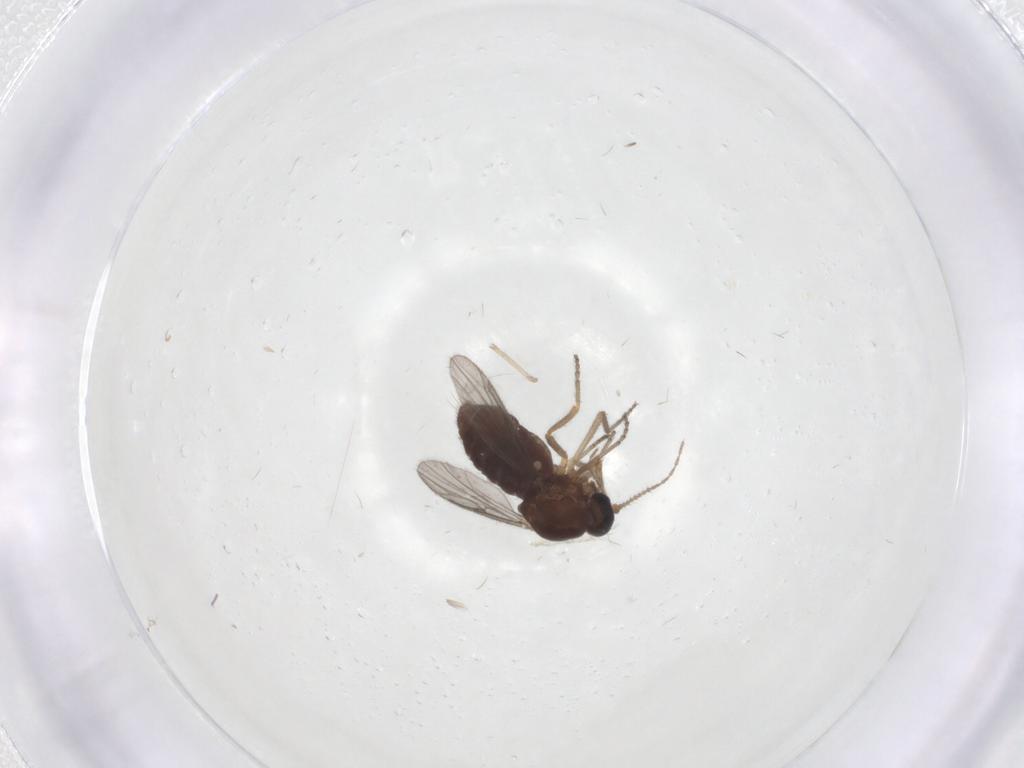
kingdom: Animalia
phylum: Arthropoda
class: Insecta
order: Diptera
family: Ceratopogonidae
